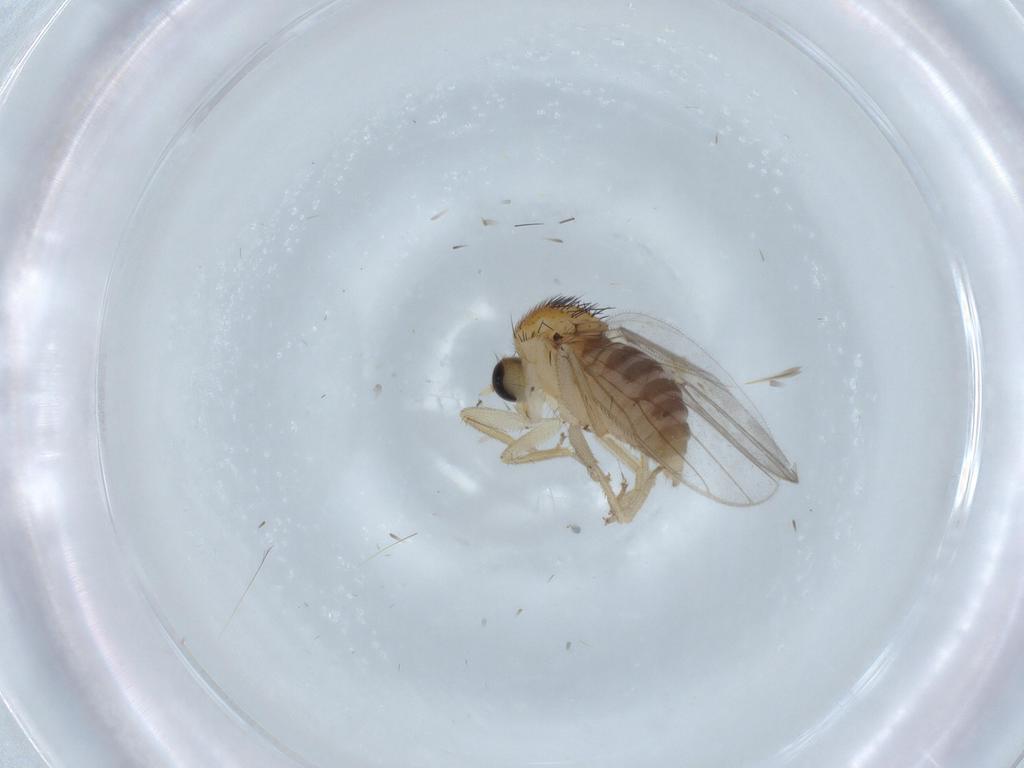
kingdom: Animalia
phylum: Arthropoda
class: Insecta
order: Diptera
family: Hybotidae
